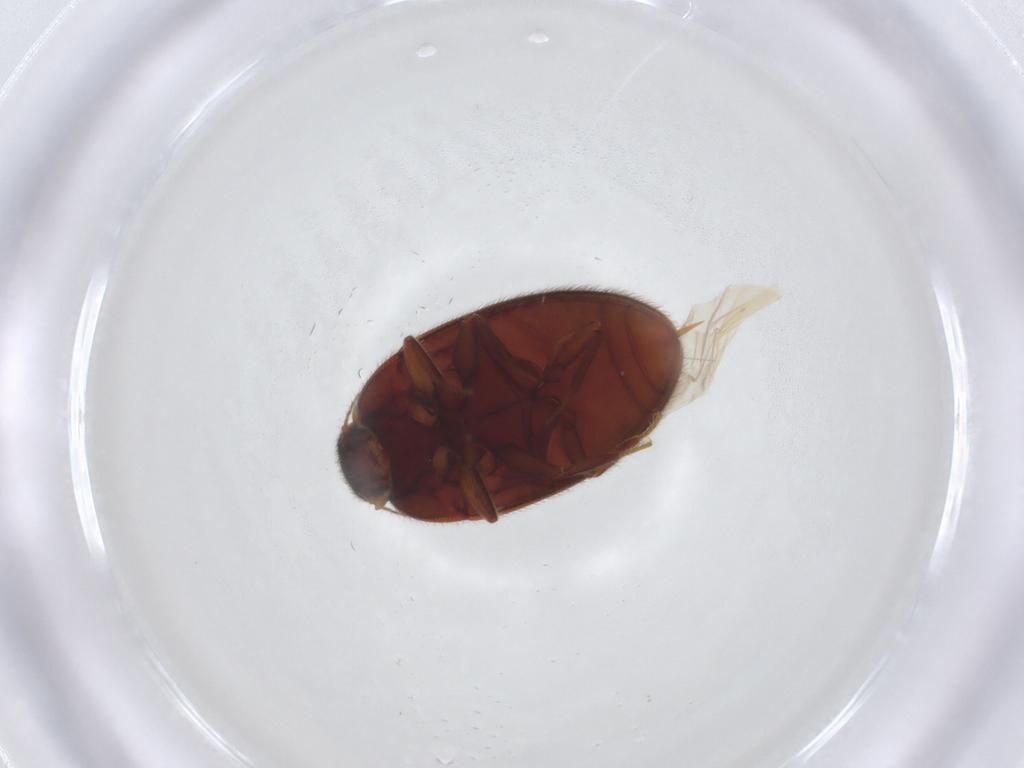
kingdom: Animalia
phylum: Arthropoda
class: Insecta
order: Coleoptera
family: Limnichidae
